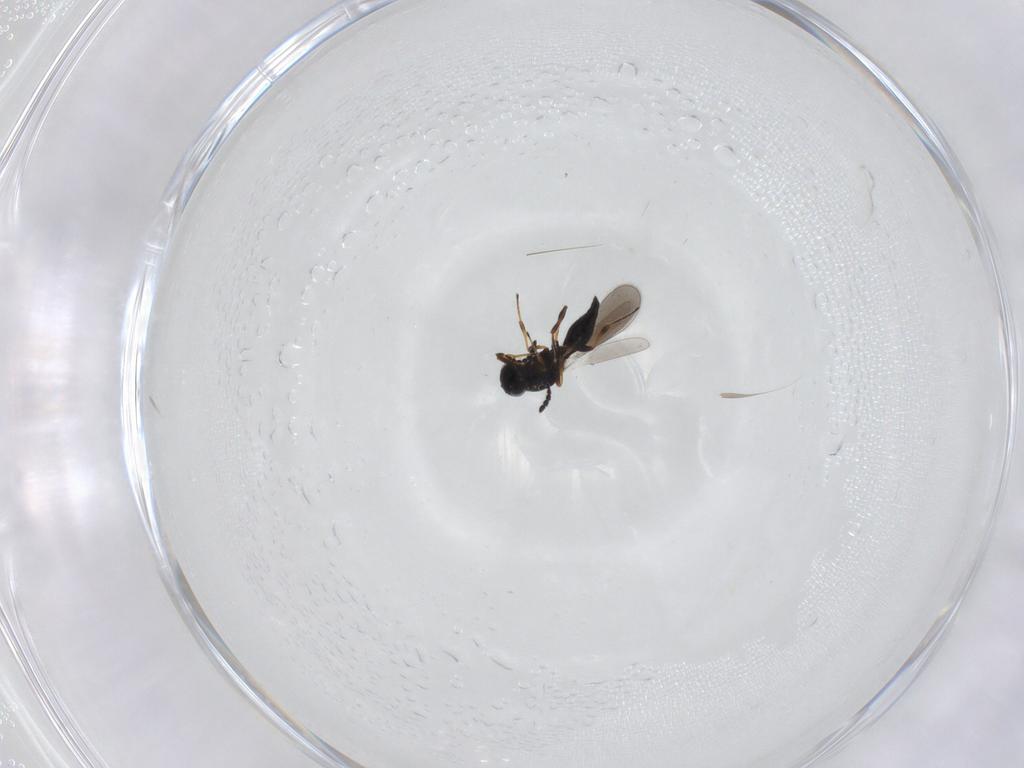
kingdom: Animalia
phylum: Arthropoda
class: Insecta
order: Hymenoptera
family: Platygastridae
